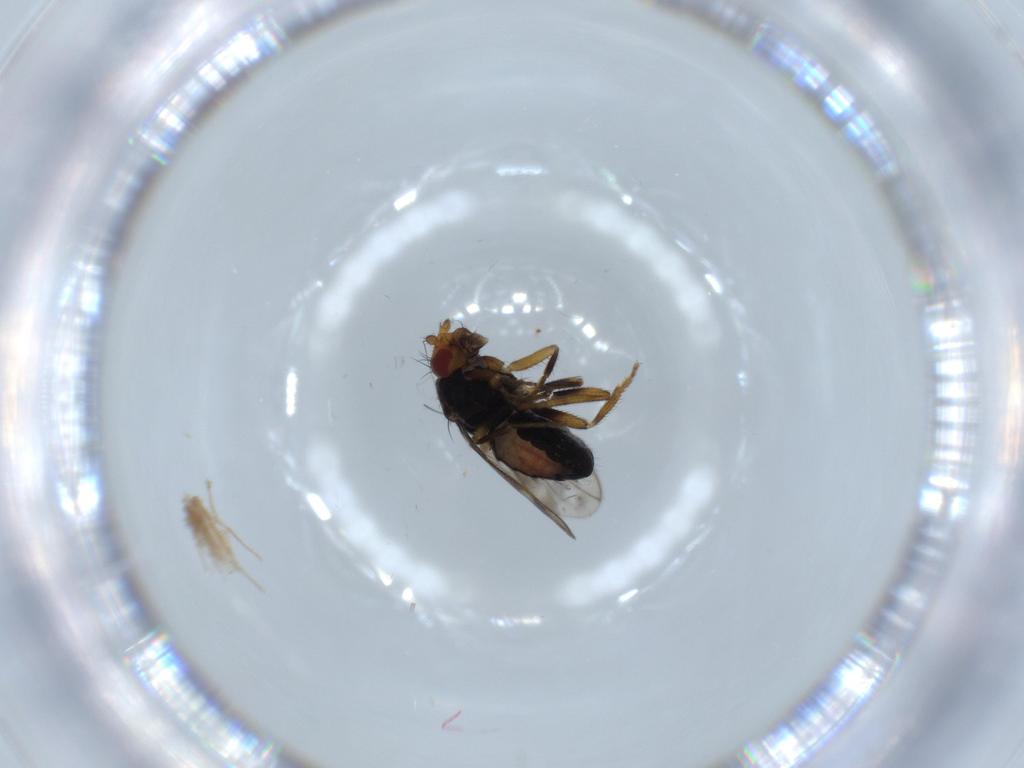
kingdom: Animalia
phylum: Arthropoda
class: Insecta
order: Diptera
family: Sphaeroceridae
